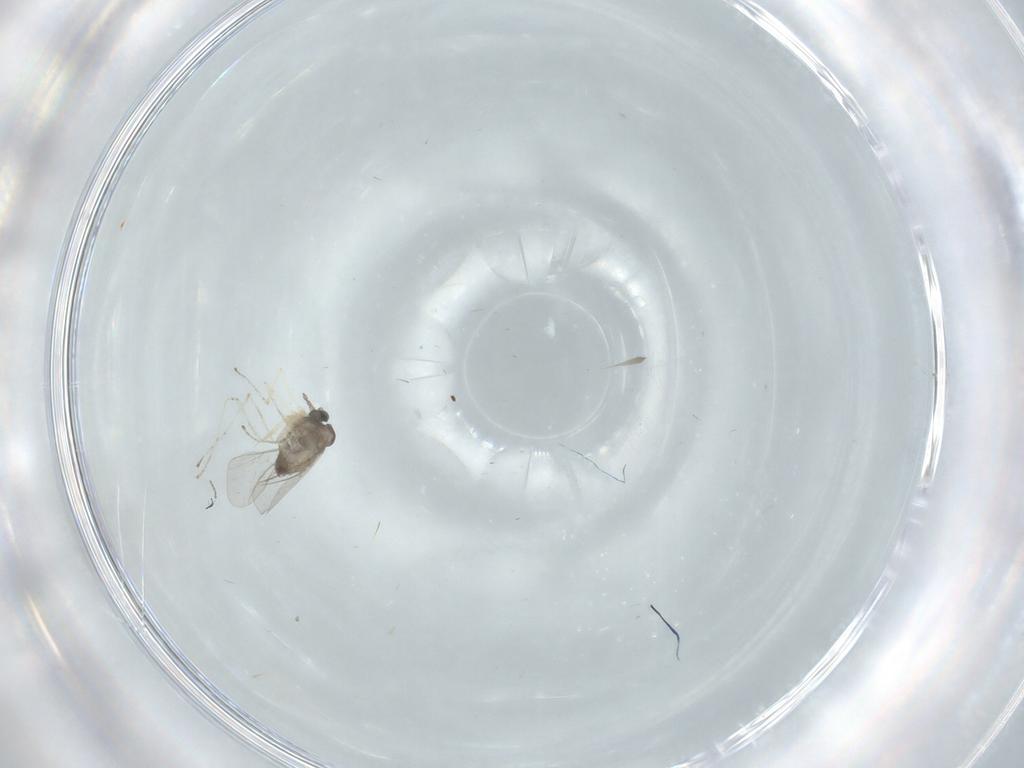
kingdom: Animalia
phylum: Arthropoda
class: Insecta
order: Diptera
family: Cecidomyiidae
